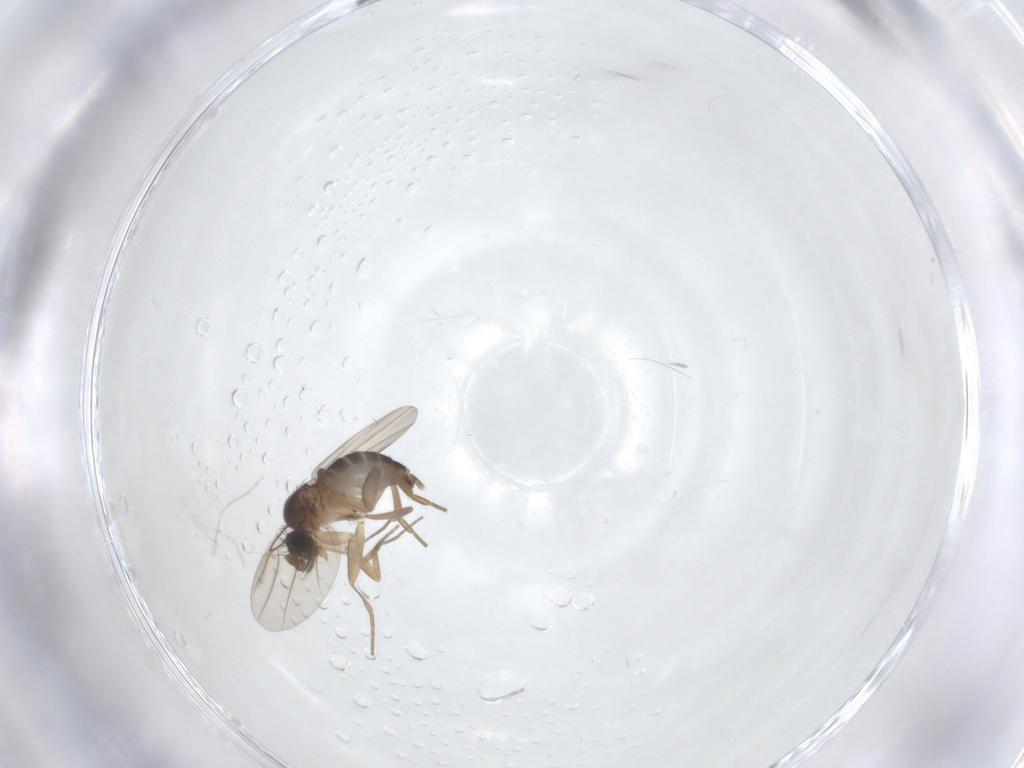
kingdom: Animalia
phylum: Arthropoda
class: Insecta
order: Diptera
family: Phoridae
